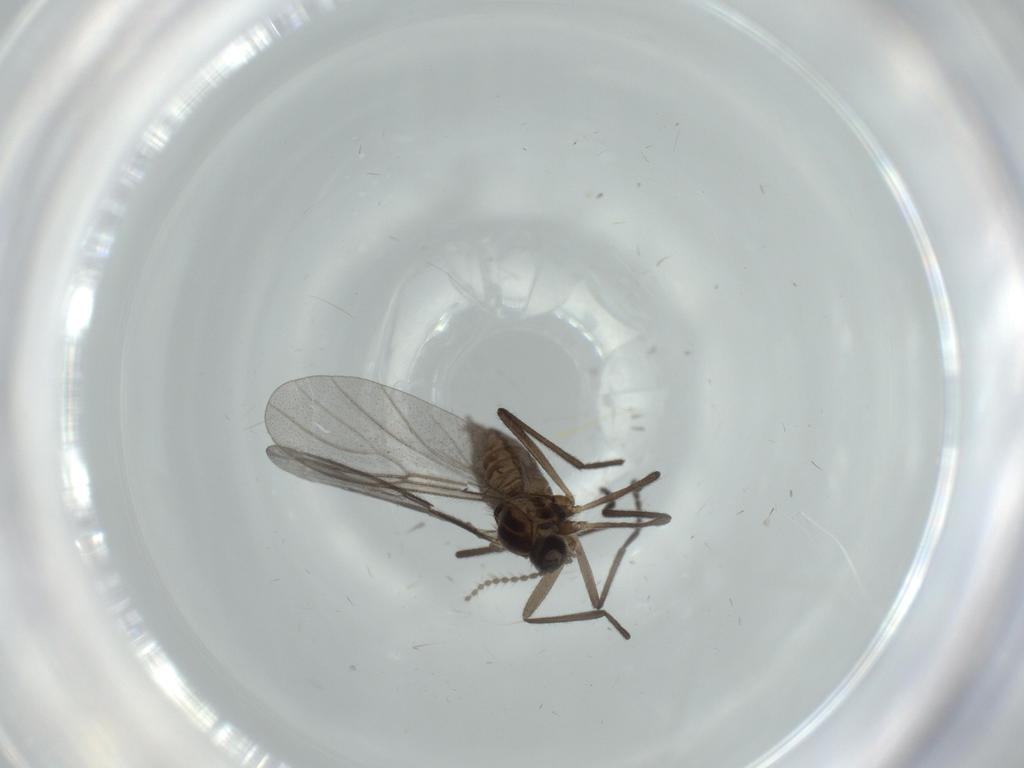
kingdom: Animalia
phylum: Arthropoda
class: Insecta
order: Diptera
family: Cecidomyiidae
